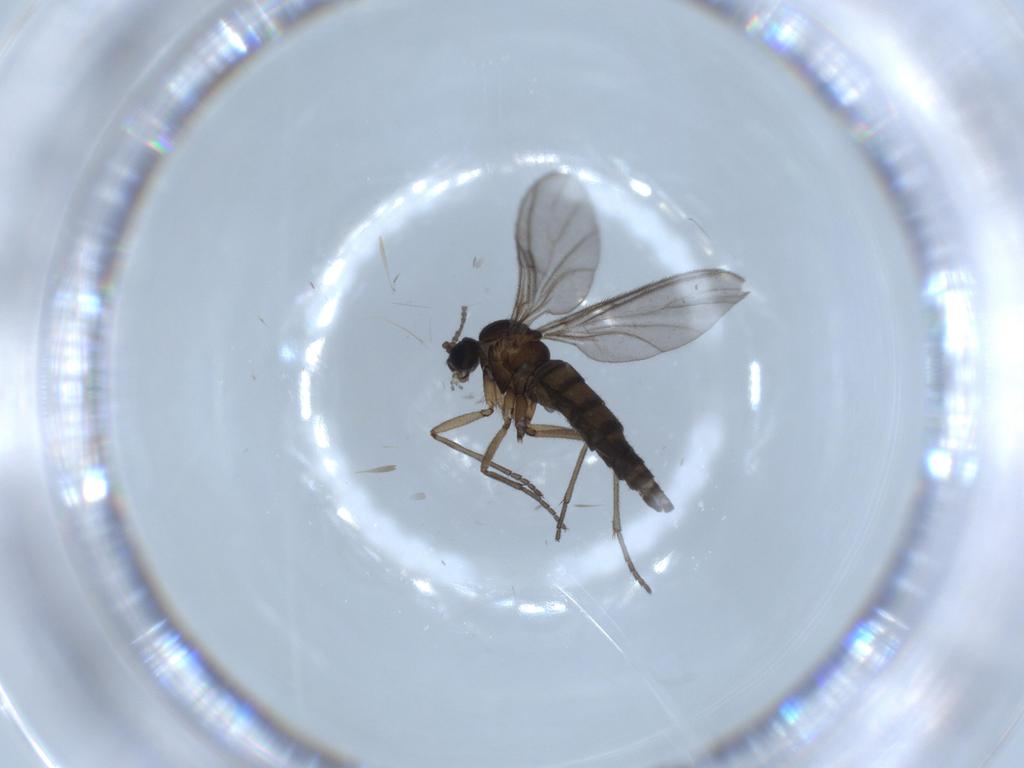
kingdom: Animalia
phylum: Arthropoda
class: Insecta
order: Diptera
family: Sciaridae
